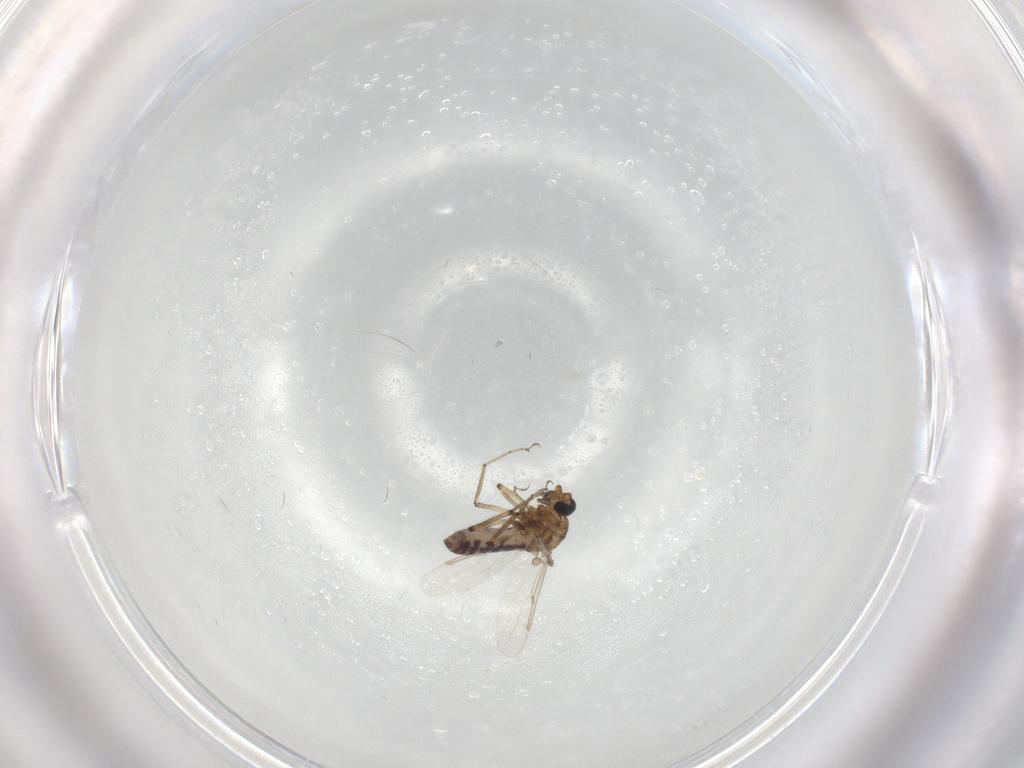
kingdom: Animalia
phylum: Arthropoda
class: Insecta
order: Diptera
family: Ceratopogonidae
